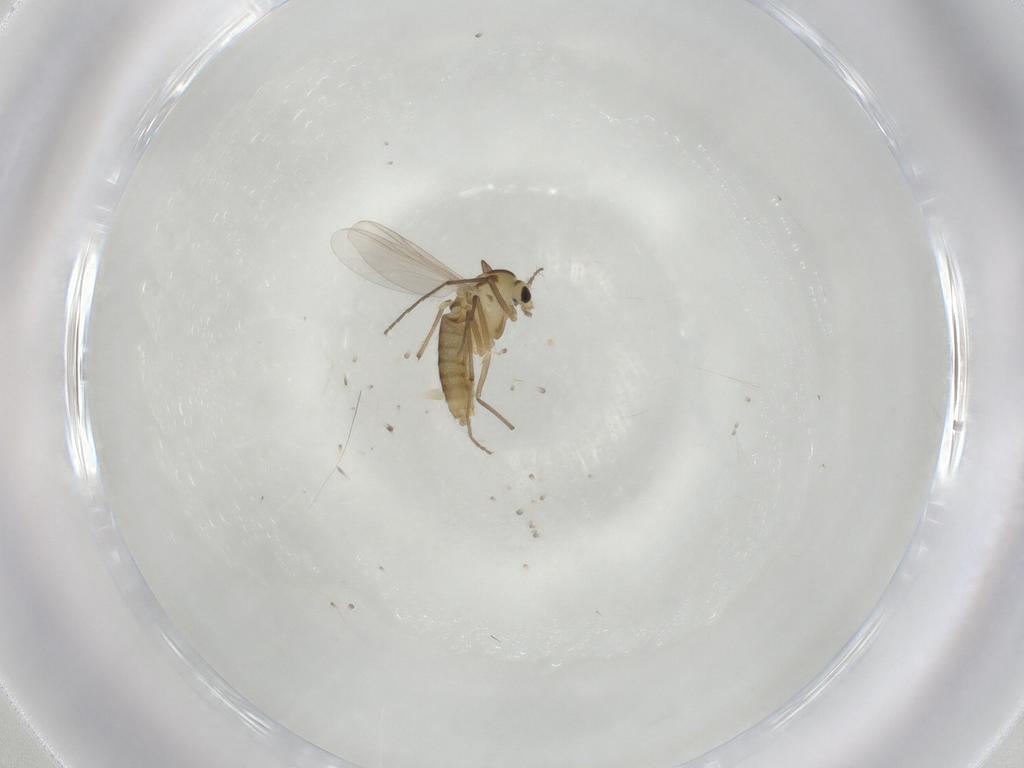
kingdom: Animalia
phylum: Arthropoda
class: Insecta
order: Diptera
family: Chironomidae
